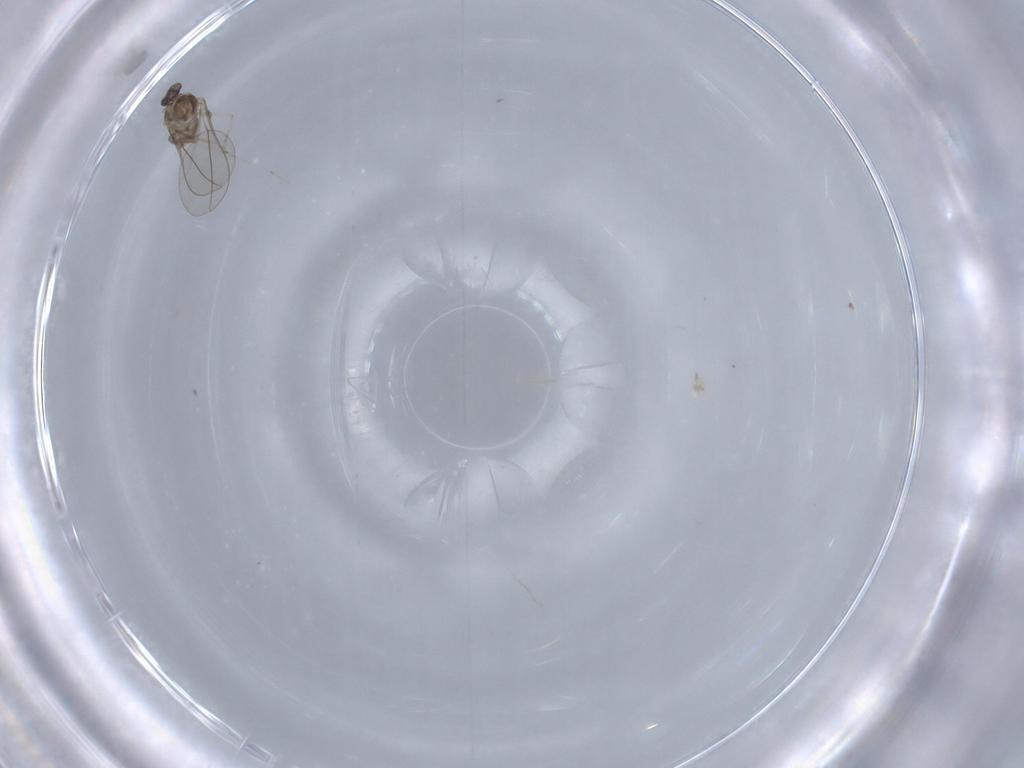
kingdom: Animalia
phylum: Arthropoda
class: Insecta
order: Diptera
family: Cecidomyiidae
